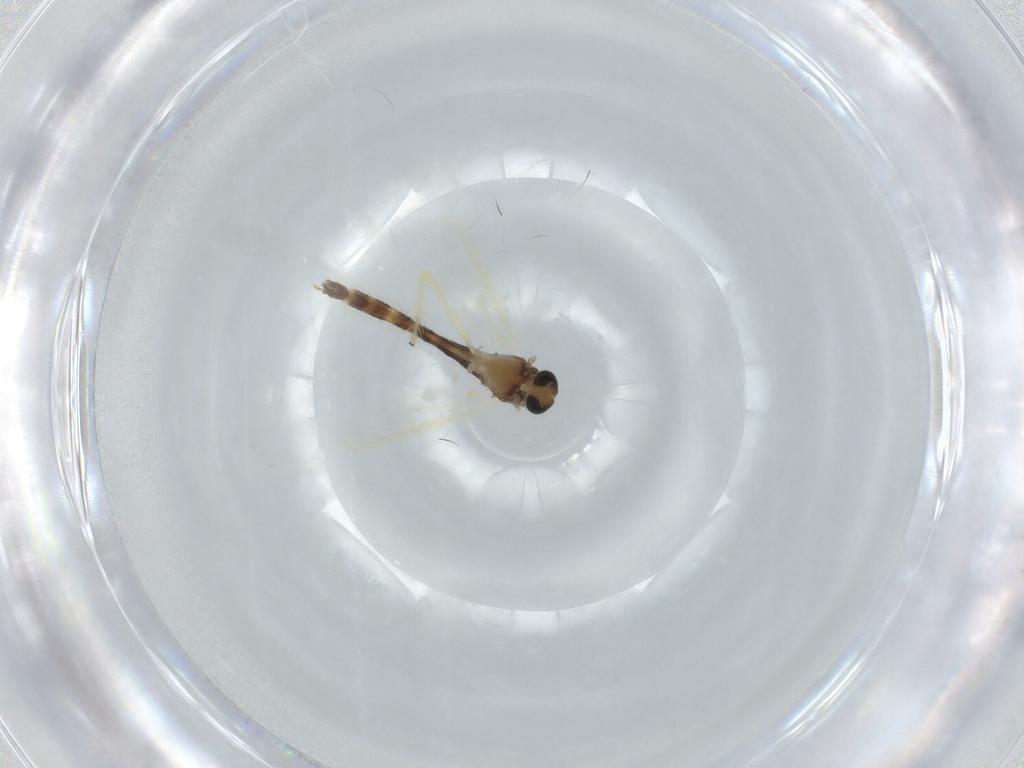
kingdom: Animalia
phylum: Arthropoda
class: Insecta
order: Diptera
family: Chironomidae
